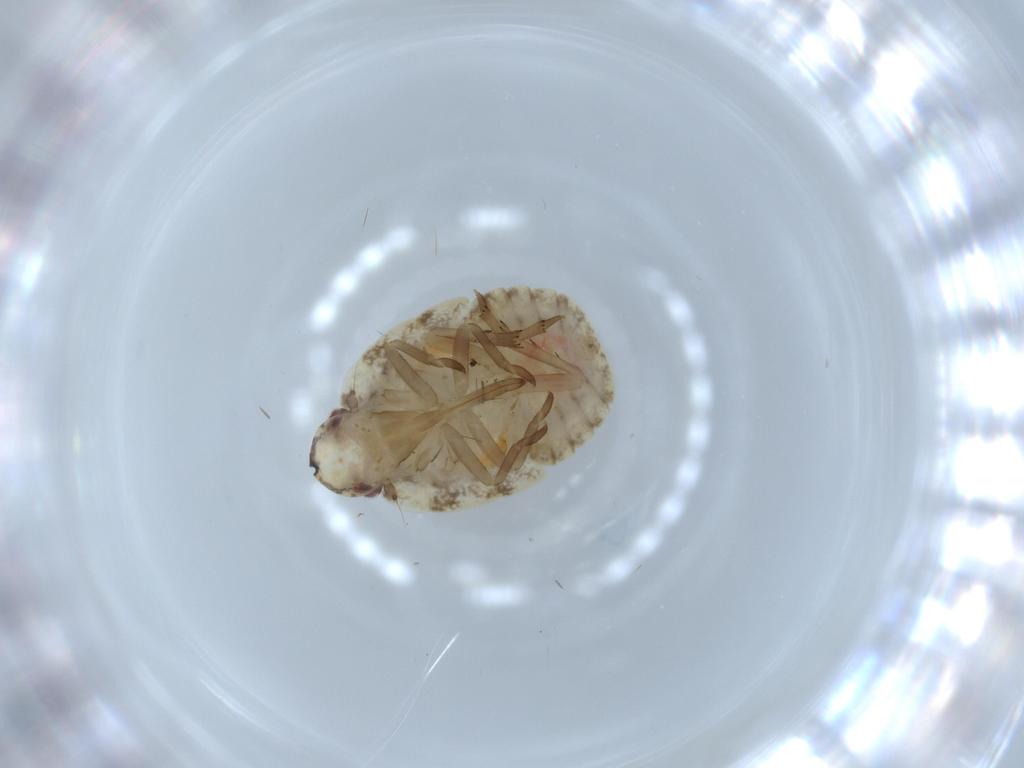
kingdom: Animalia
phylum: Arthropoda
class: Insecta
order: Hemiptera
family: Flatidae
